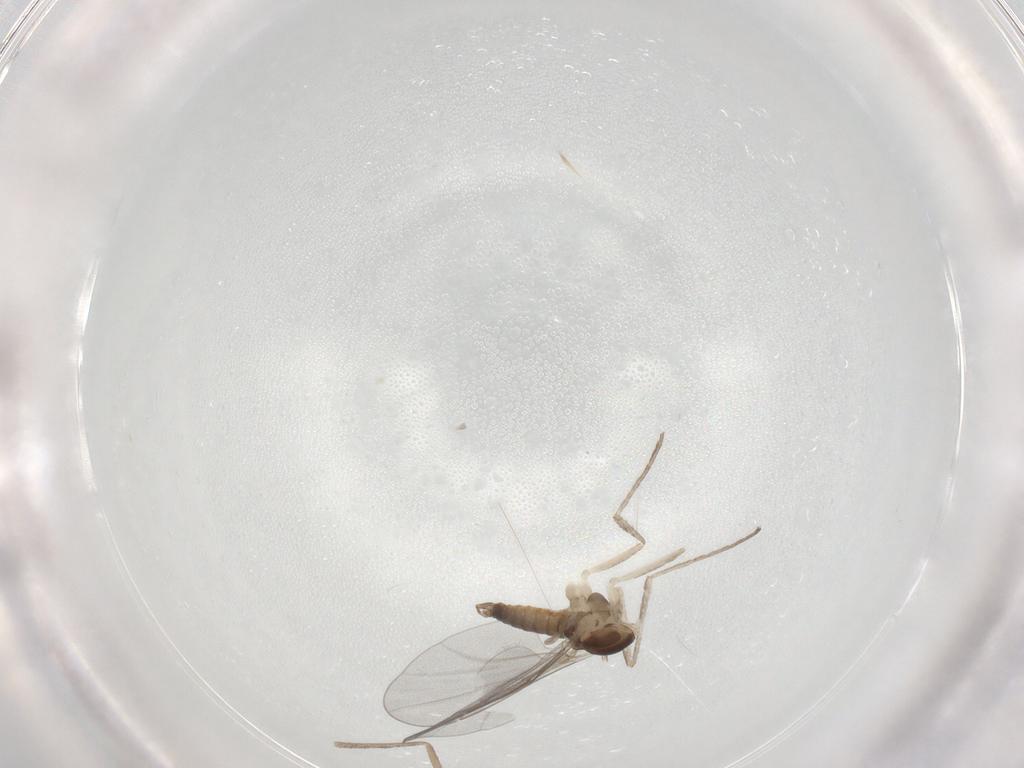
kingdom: Animalia
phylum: Arthropoda
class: Insecta
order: Diptera
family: Cecidomyiidae
